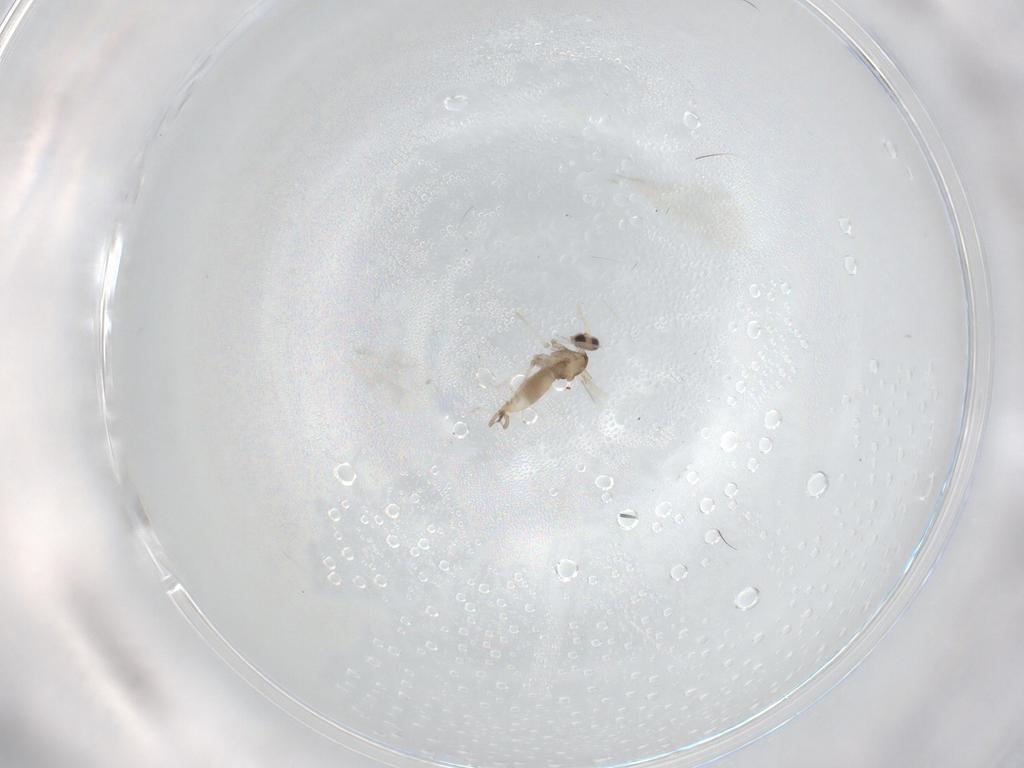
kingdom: Animalia
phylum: Arthropoda
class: Insecta
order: Diptera
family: Cecidomyiidae
